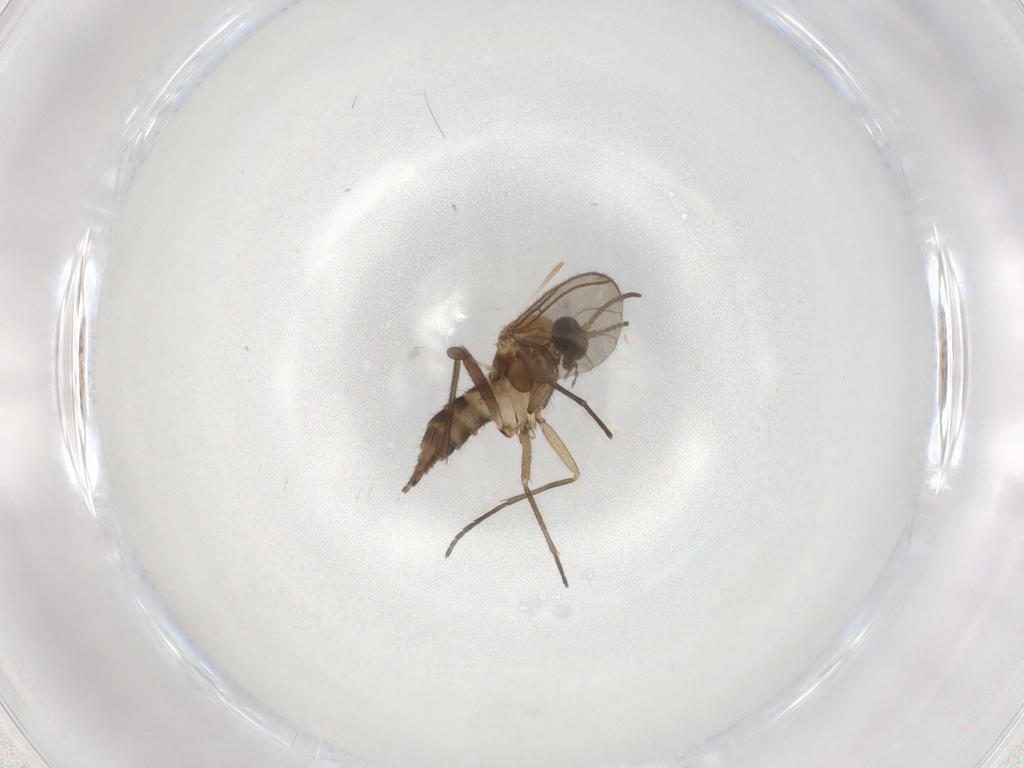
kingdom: Animalia
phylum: Arthropoda
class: Insecta
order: Diptera
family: Sciaridae
